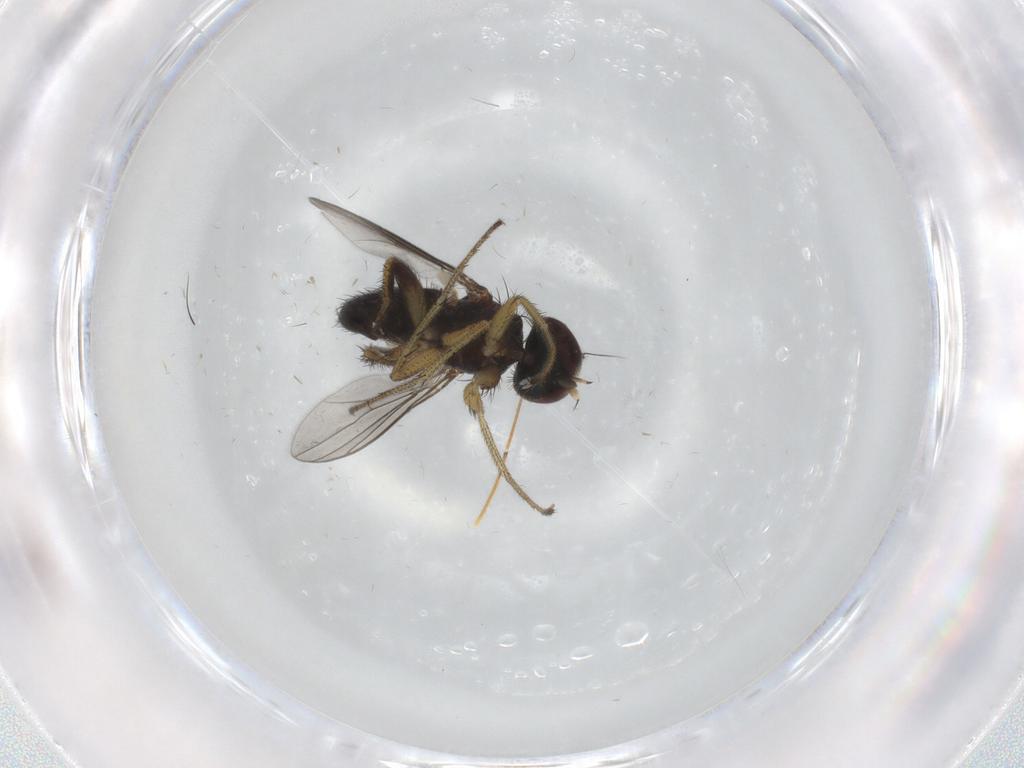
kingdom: Animalia
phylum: Arthropoda
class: Insecta
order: Diptera
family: Dolichopodidae
